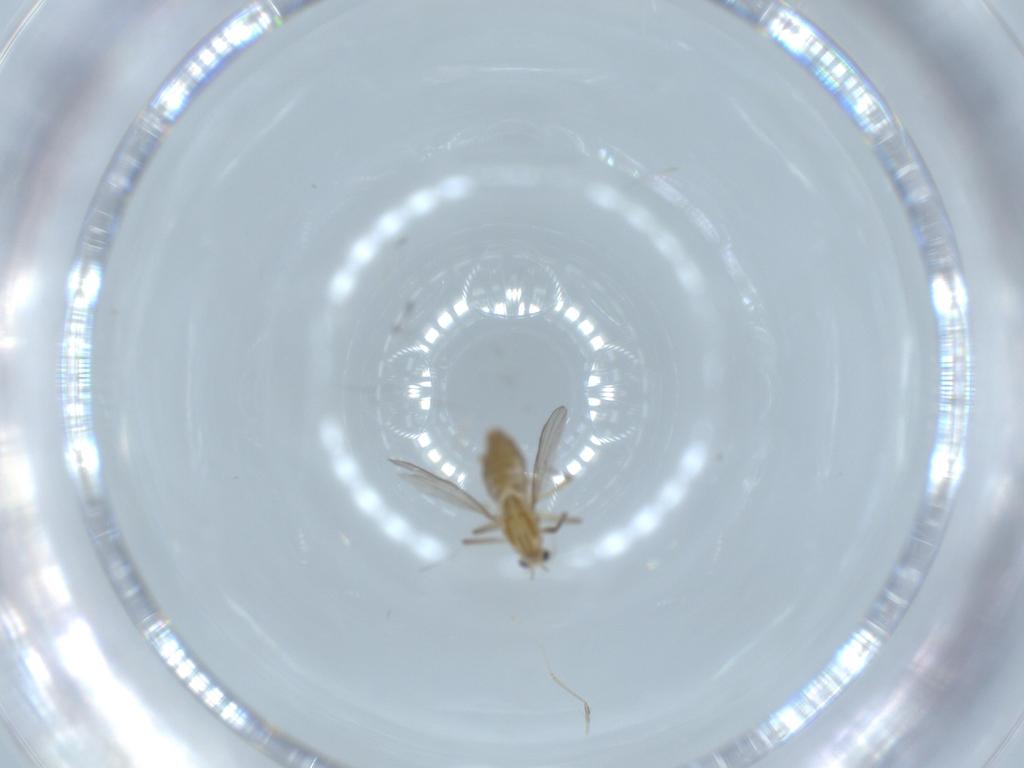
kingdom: Animalia
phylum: Arthropoda
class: Insecta
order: Diptera
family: Chironomidae
